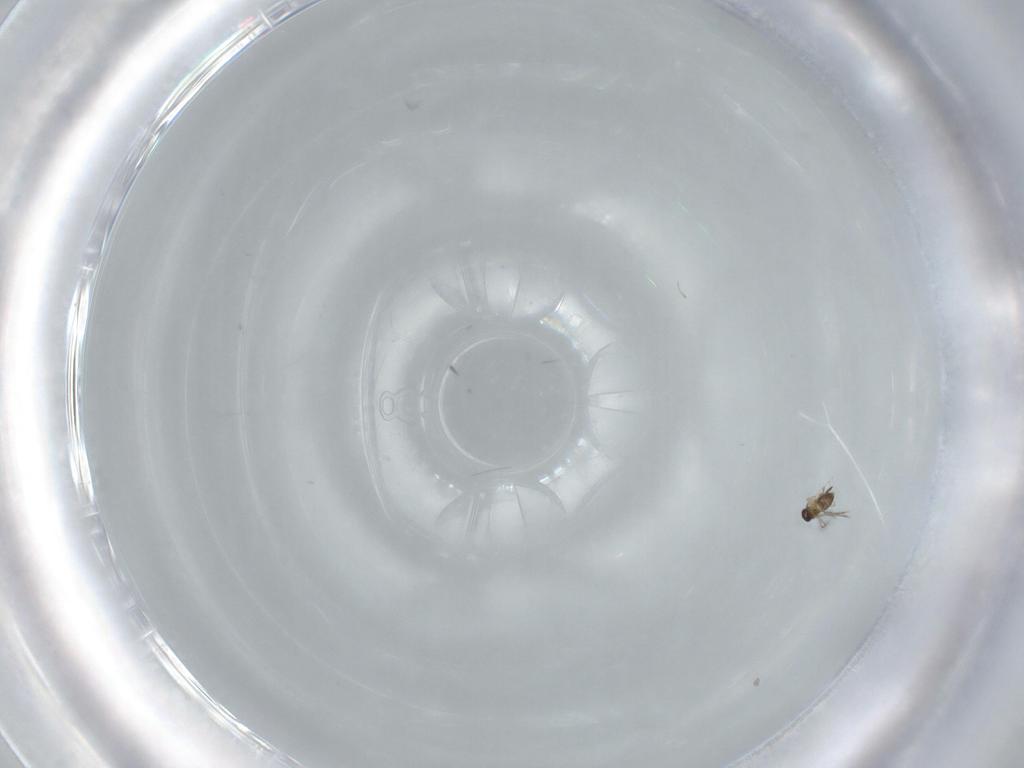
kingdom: Animalia
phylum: Arthropoda
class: Insecta
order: Hymenoptera
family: Mymaridae
